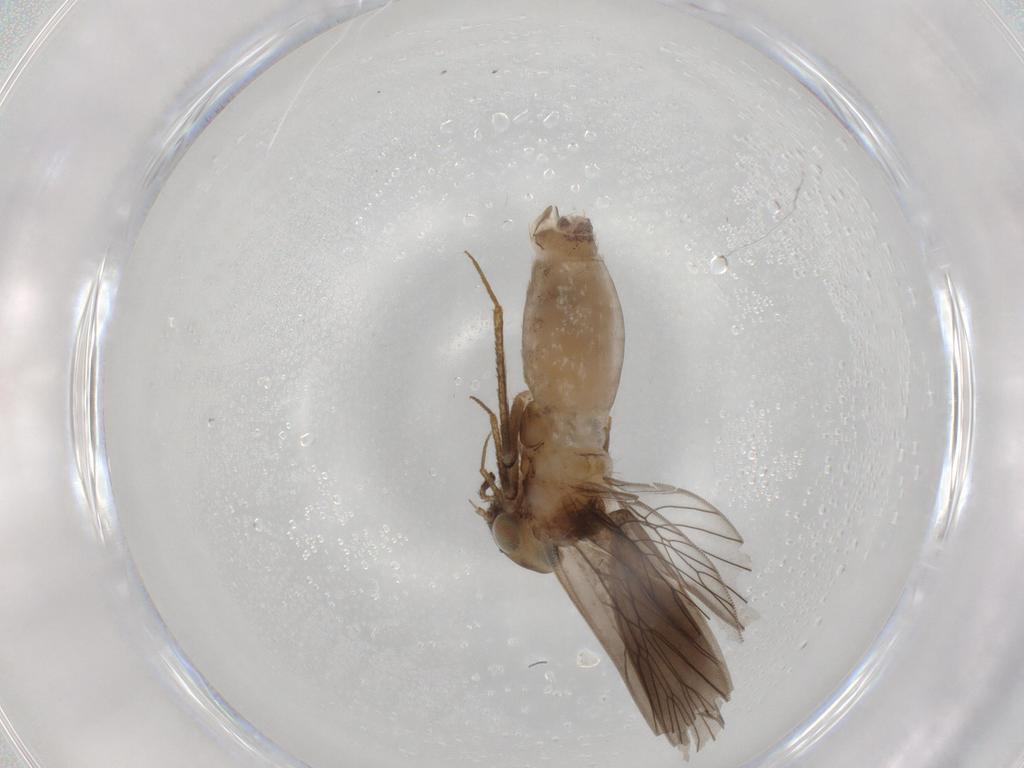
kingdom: Animalia
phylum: Arthropoda
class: Insecta
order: Psocodea
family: Lepidopsocidae
